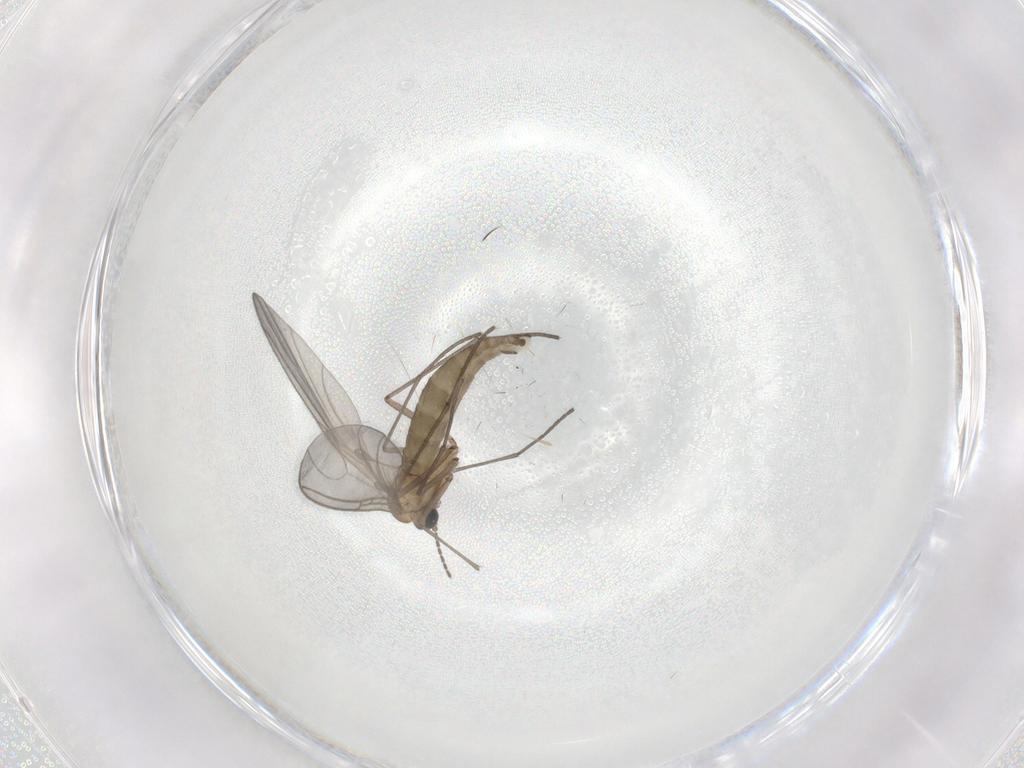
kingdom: Animalia
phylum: Arthropoda
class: Insecta
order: Diptera
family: Sciaridae
